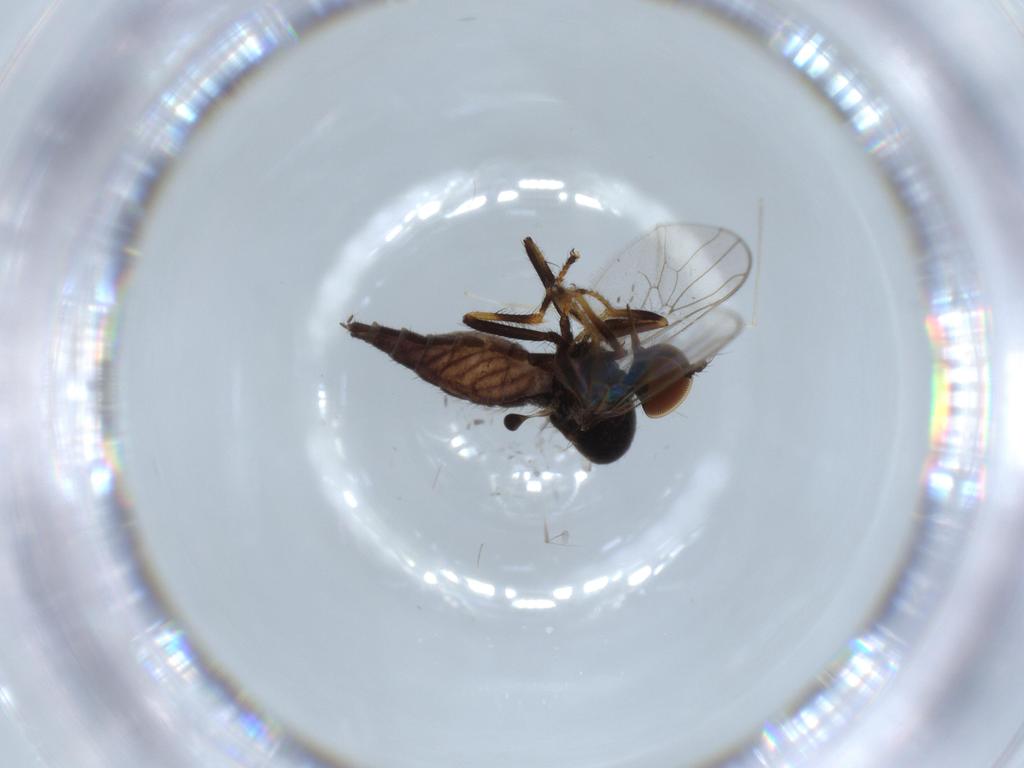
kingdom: Animalia
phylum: Arthropoda
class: Insecta
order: Diptera
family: Hybotidae
